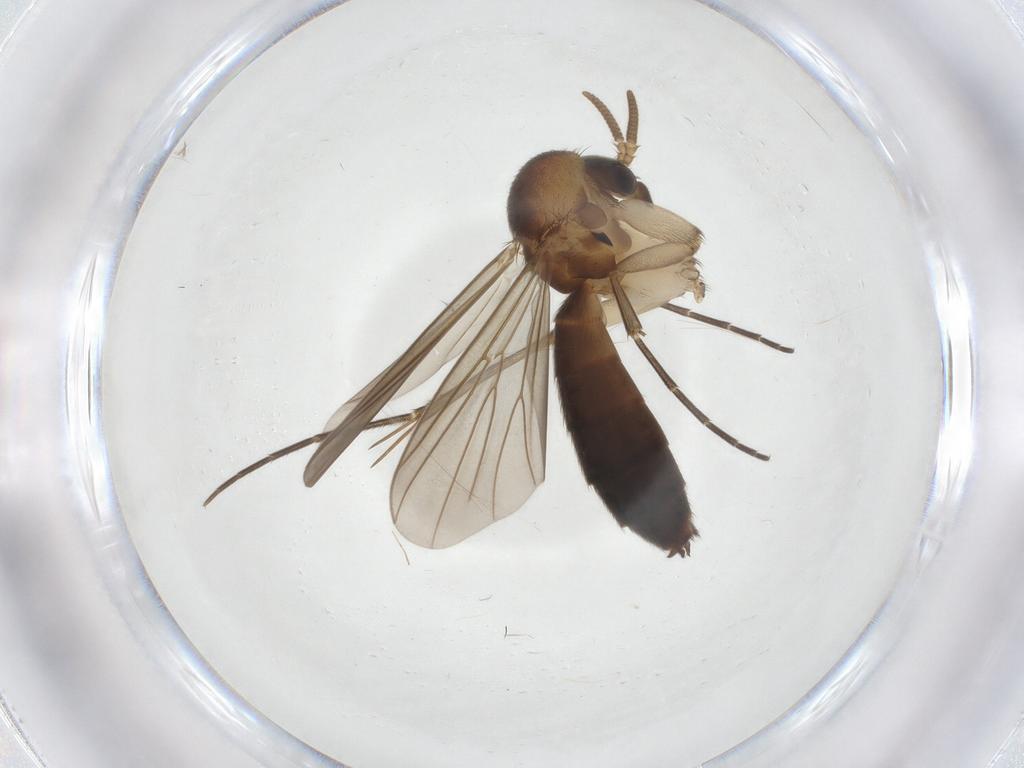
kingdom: Animalia
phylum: Arthropoda
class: Insecta
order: Diptera
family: Mycetophilidae
